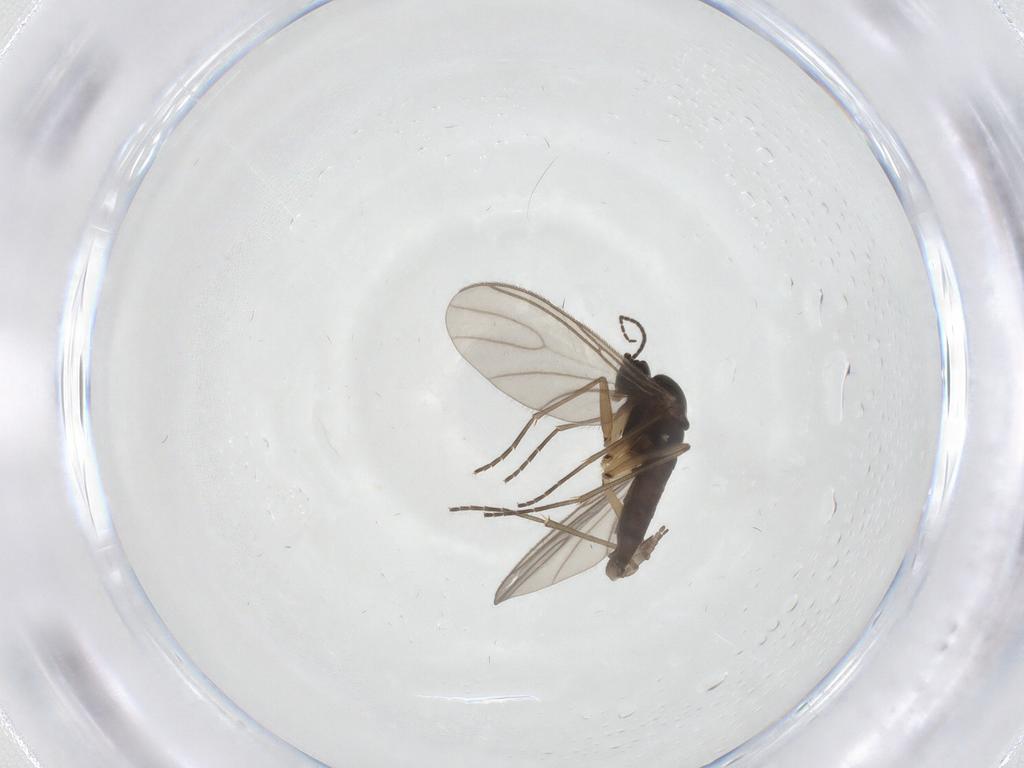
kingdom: Animalia
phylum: Arthropoda
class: Insecta
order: Diptera
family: Sciaridae
